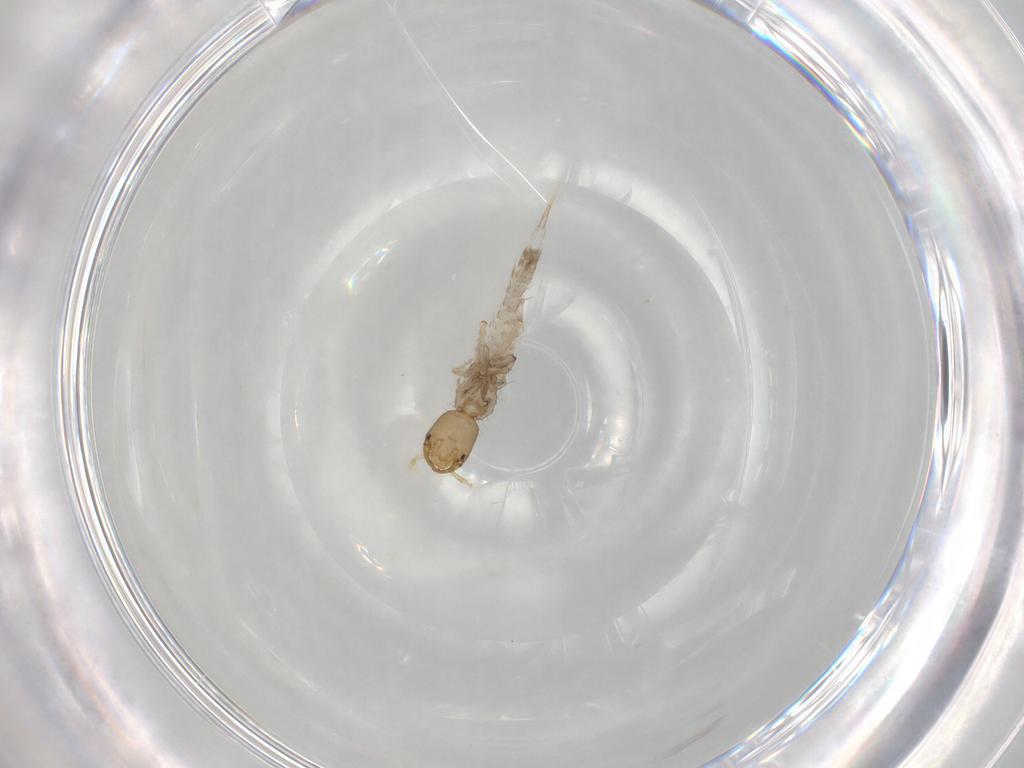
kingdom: Animalia
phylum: Arthropoda
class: Insecta
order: Coleoptera
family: Staphylinidae
